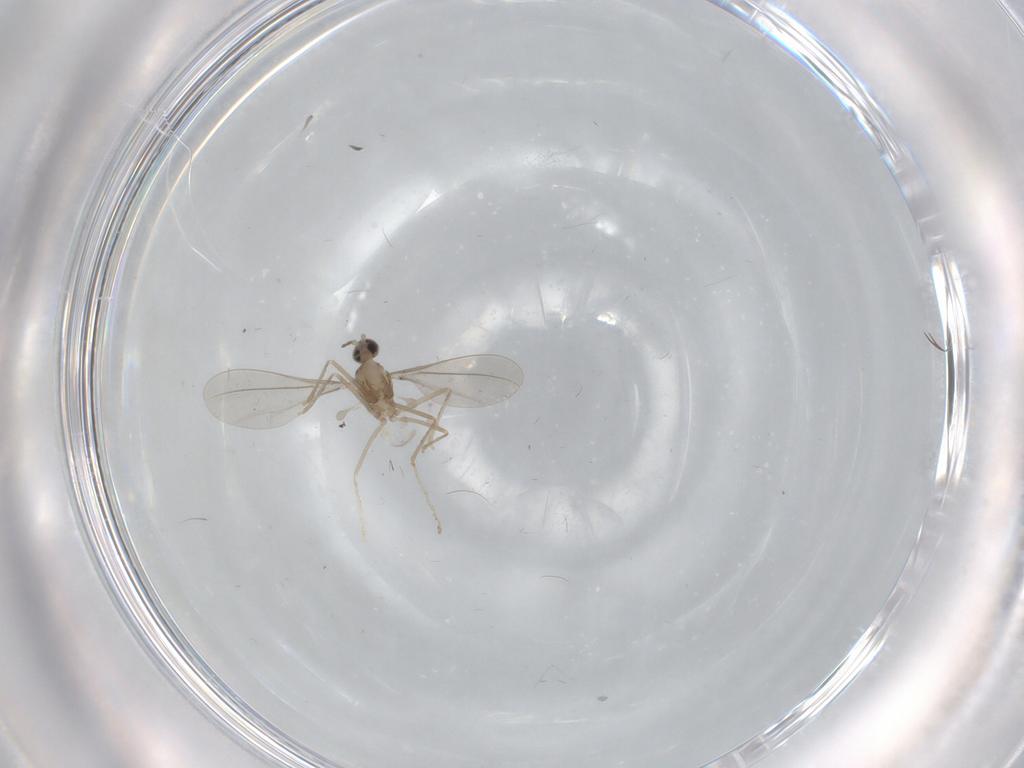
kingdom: Animalia
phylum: Arthropoda
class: Insecta
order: Diptera
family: Cecidomyiidae
